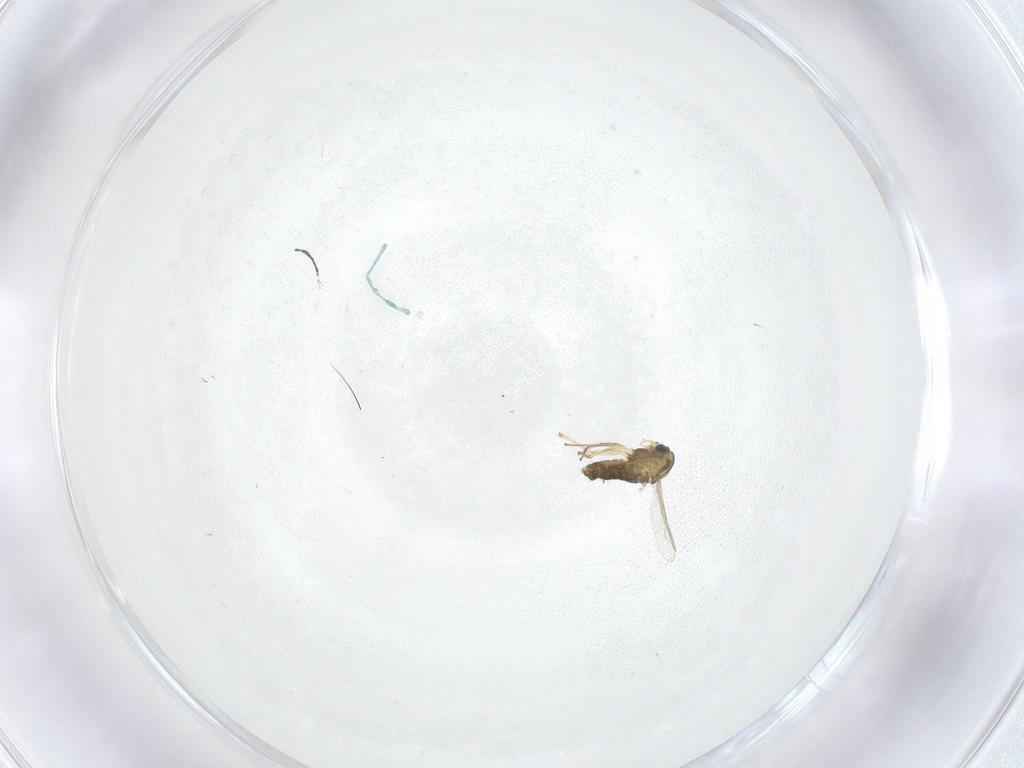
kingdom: Animalia
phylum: Arthropoda
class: Insecta
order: Diptera
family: Chironomidae
